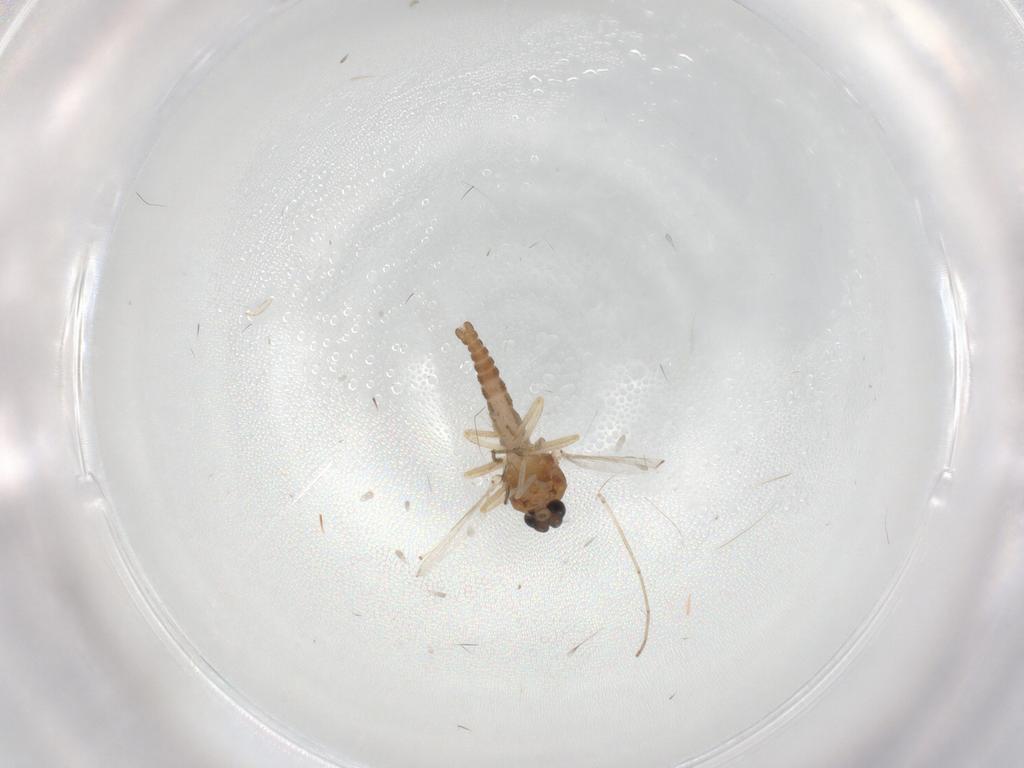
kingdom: Animalia
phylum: Arthropoda
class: Insecta
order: Diptera
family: Ceratopogonidae
